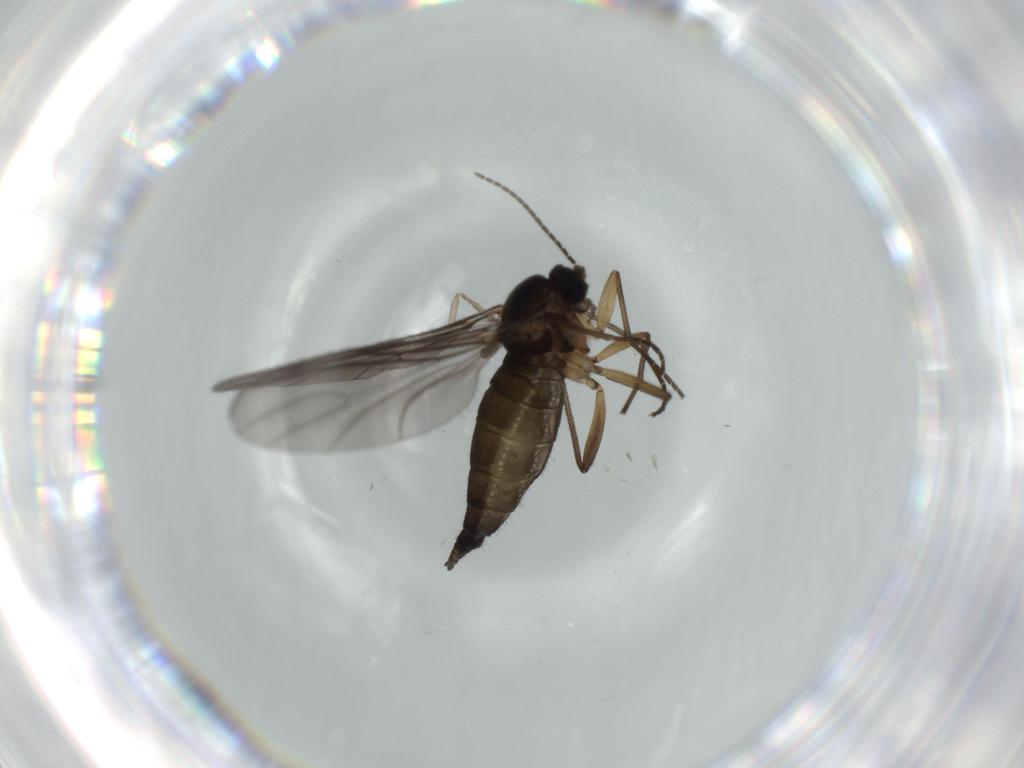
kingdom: Animalia
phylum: Arthropoda
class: Insecta
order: Diptera
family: Sciaridae
